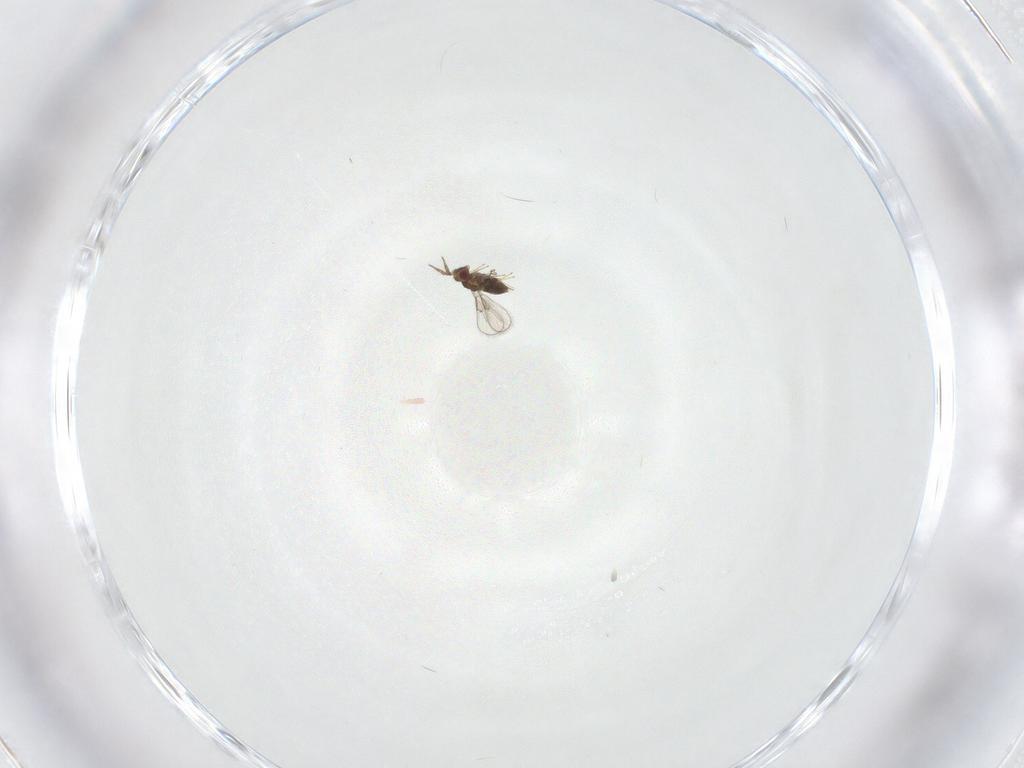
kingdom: Animalia
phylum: Arthropoda
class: Insecta
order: Hymenoptera
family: Trichogrammatidae
